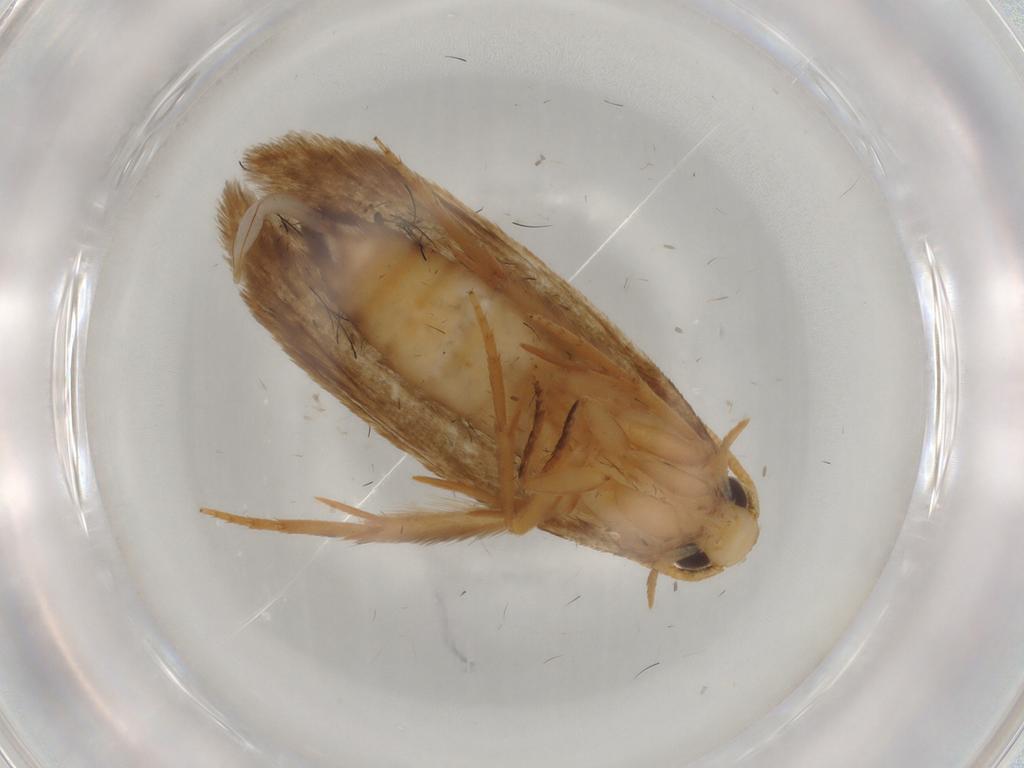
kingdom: Animalia
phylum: Arthropoda
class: Insecta
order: Lepidoptera
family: Tineidae
